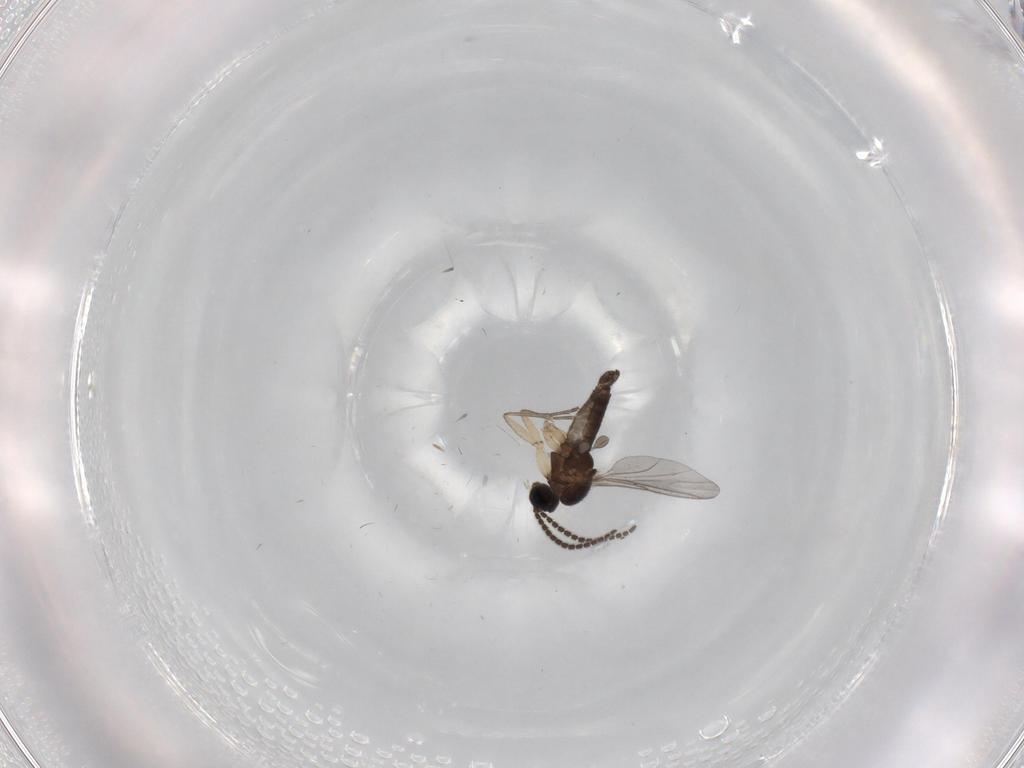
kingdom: Animalia
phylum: Arthropoda
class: Insecta
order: Diptera
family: Sciaridae
